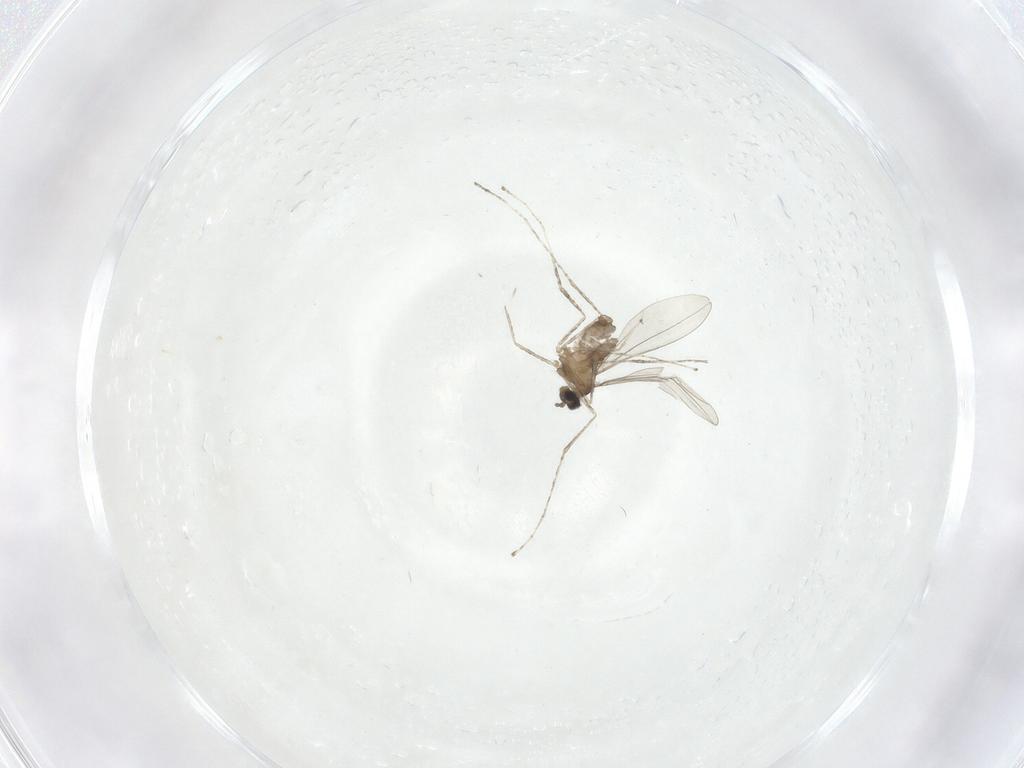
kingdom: Animalia
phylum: Arthropoda
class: Insecta
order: Diptera
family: Cecidomyiidae
